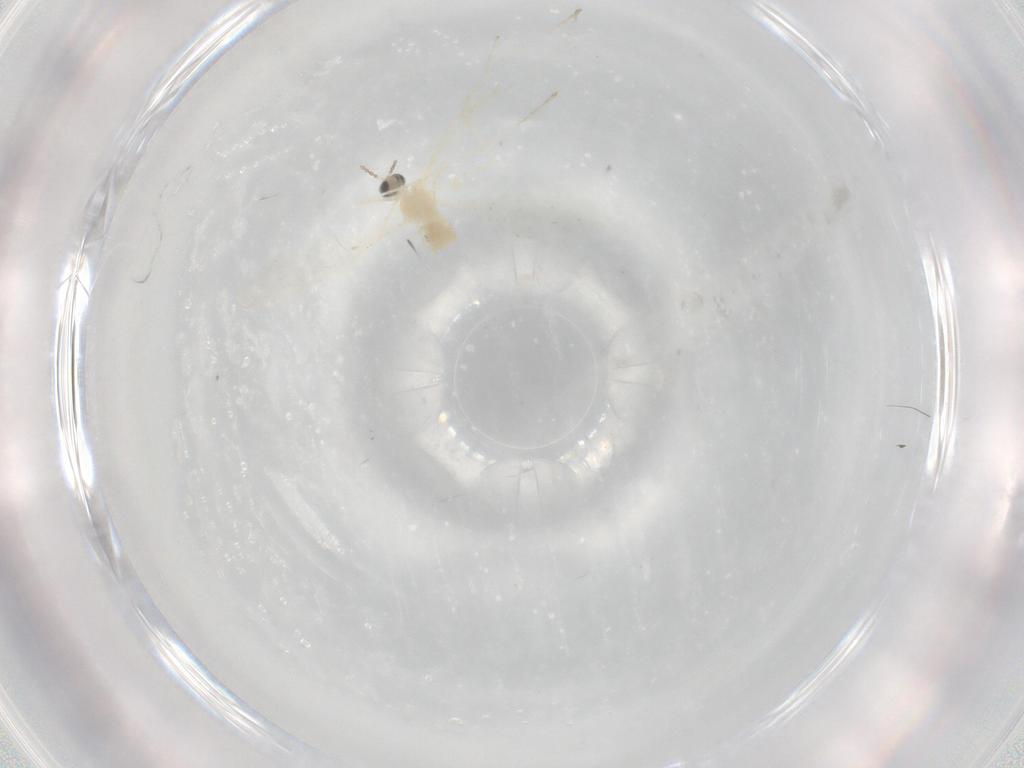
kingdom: Animalia
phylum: Arthropoda
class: Insecta
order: Diptera
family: Cecidomyiidae
